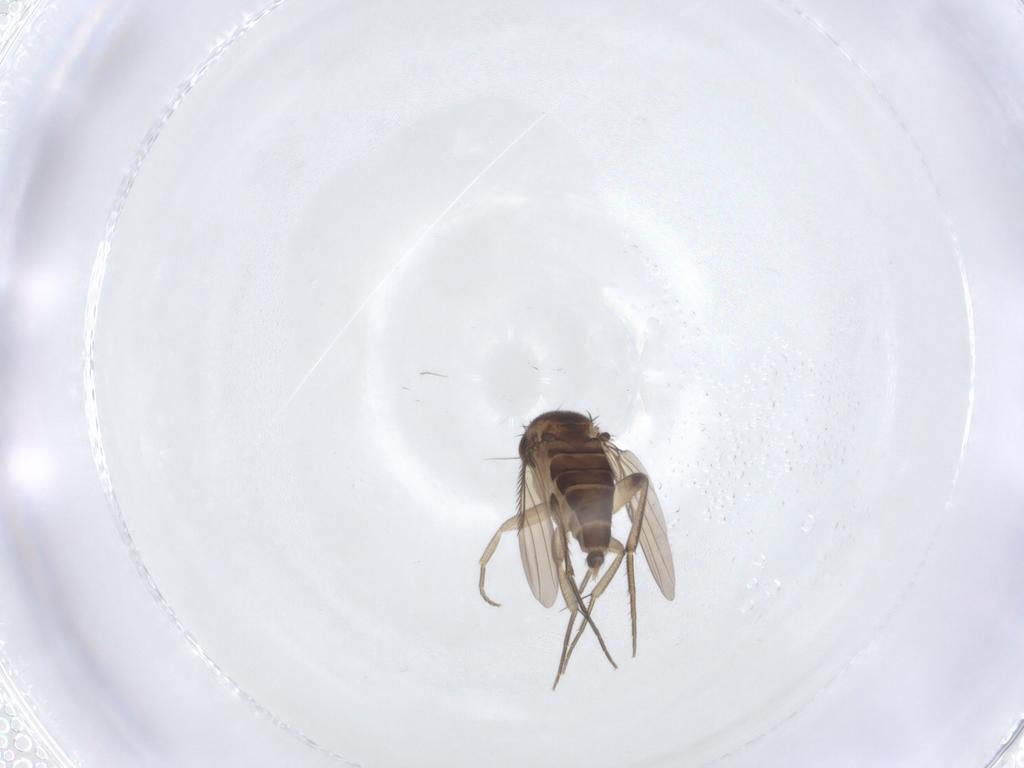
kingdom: Animalia
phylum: Arthropoda
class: Insecta
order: Diptera
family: Phoridae
